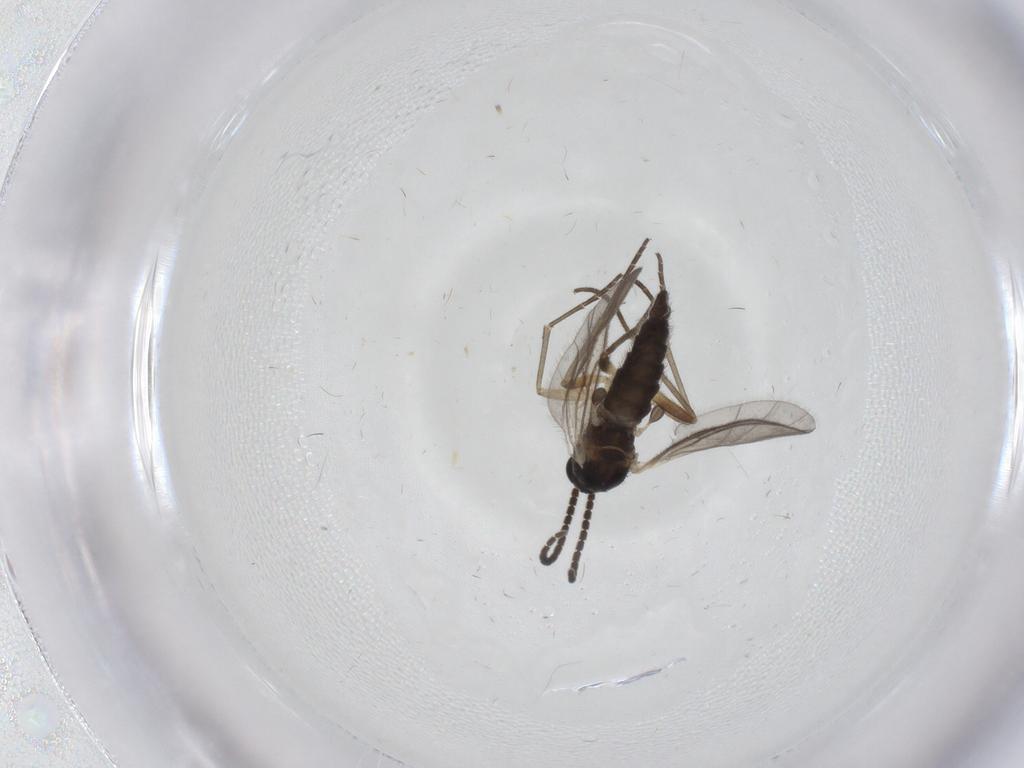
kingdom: Animalia
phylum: Arthropoda
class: Insecta
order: Diptera
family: Sciaridae
